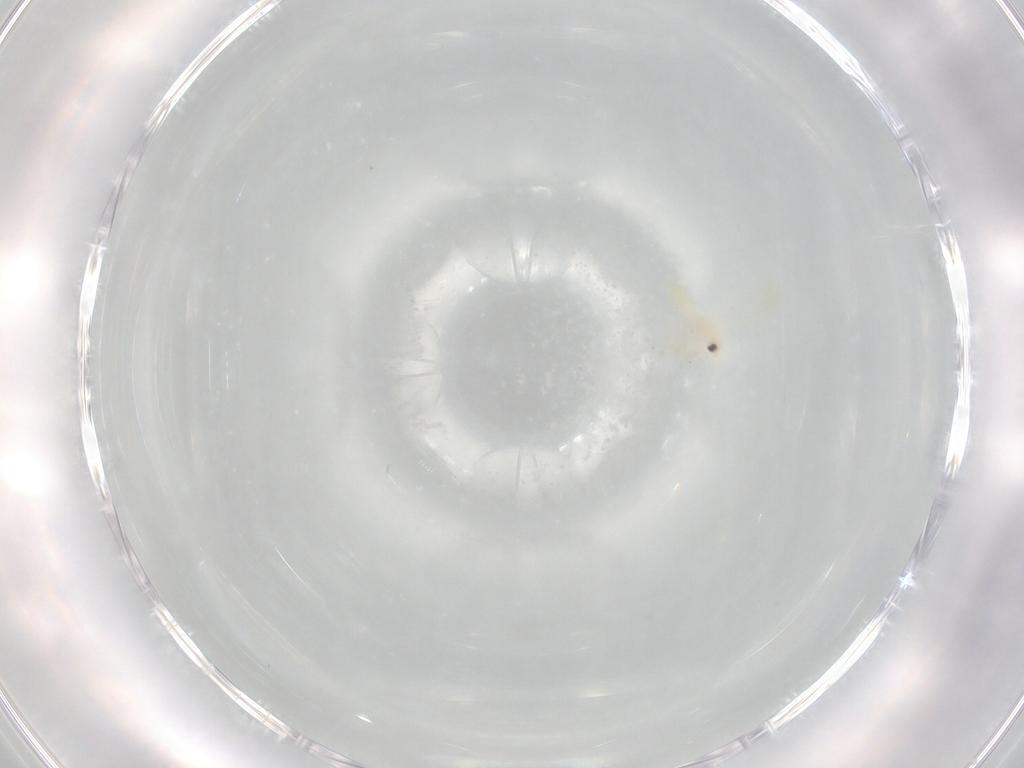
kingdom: Animalia
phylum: Arthropoda
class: Insecta
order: Hemiptera
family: Aleyrodidae
